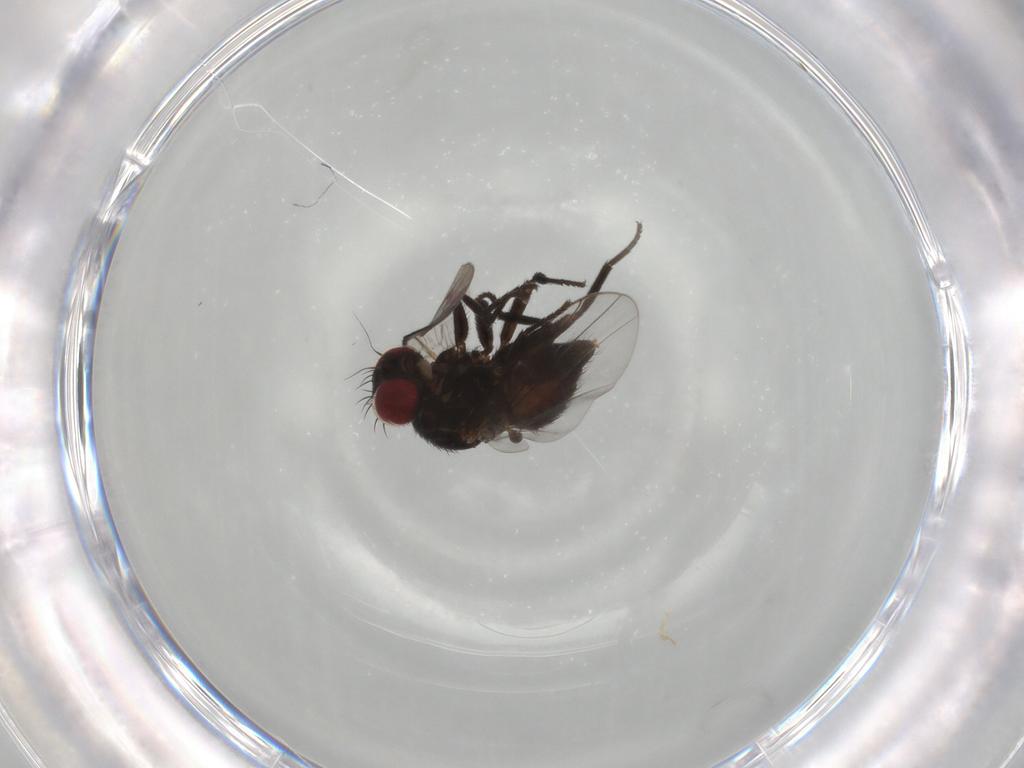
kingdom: Animalia
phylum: Arthropoda
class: Insecta
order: Diptera
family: Agromyzidae
